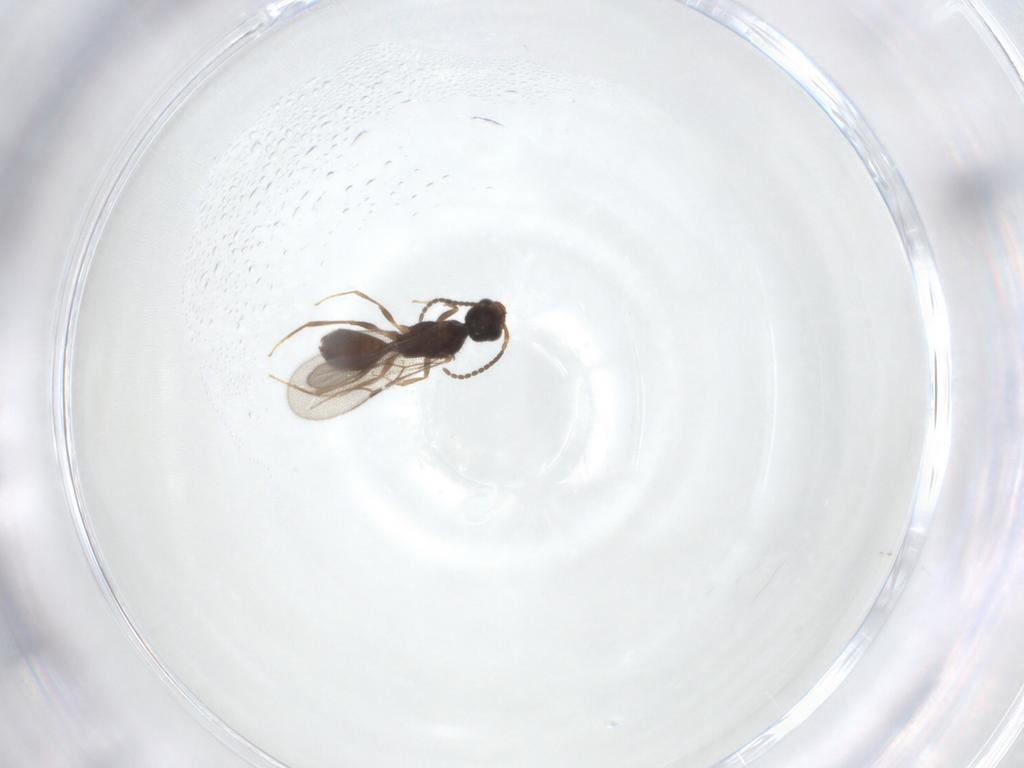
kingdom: Animalia
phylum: Arthropoda
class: Insecta
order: Hymenoptera
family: Bethylidae
